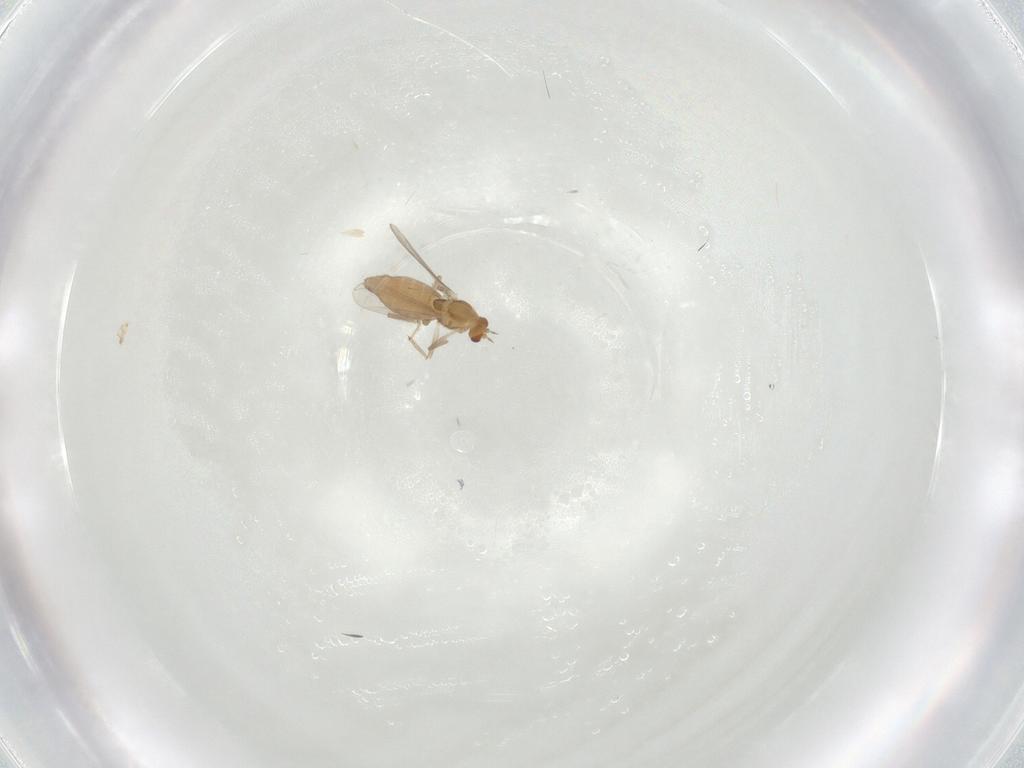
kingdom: Animalia
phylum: Arthropoda
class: Insecta
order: Diptera
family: Chironomidae
